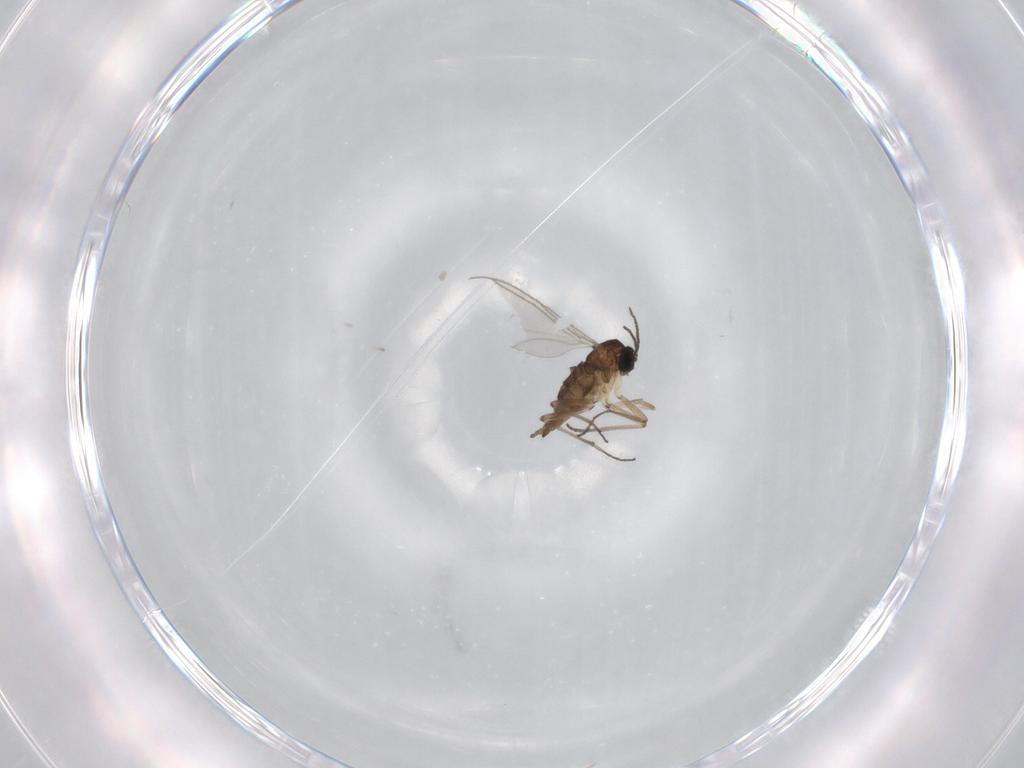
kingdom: Animalia
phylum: Arthropoda
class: Insecta
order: Diptera
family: Sciaridae
